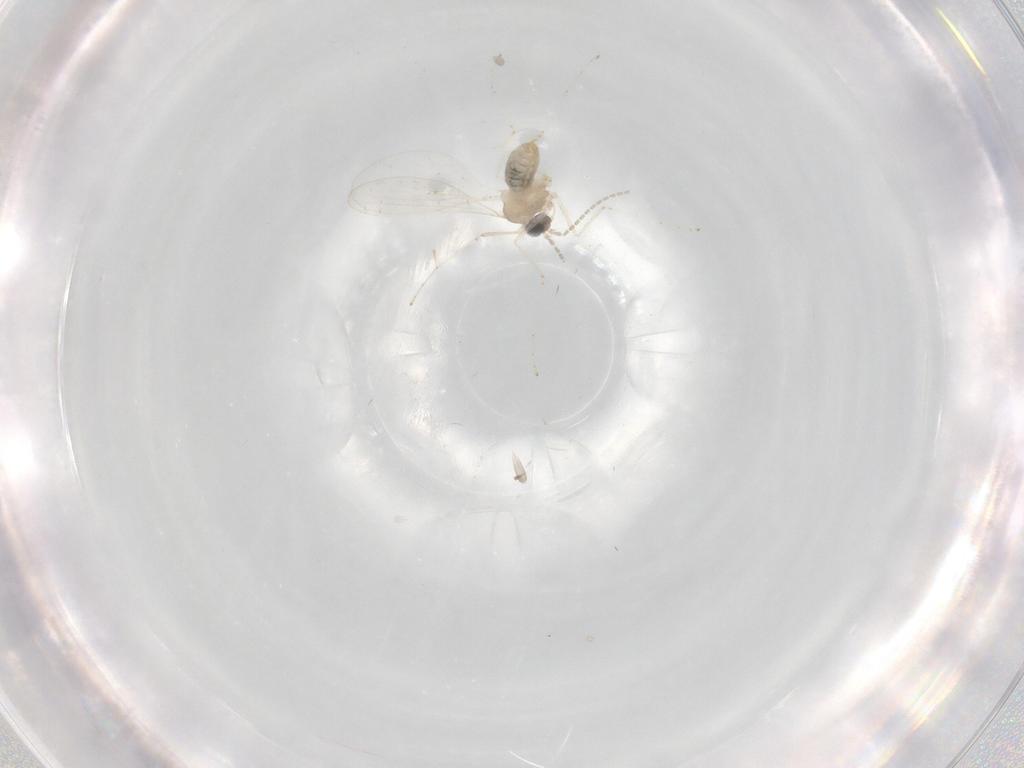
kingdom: Animalia
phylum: Arthropoda
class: Insecta
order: Diptera
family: Cecidomyiidae
